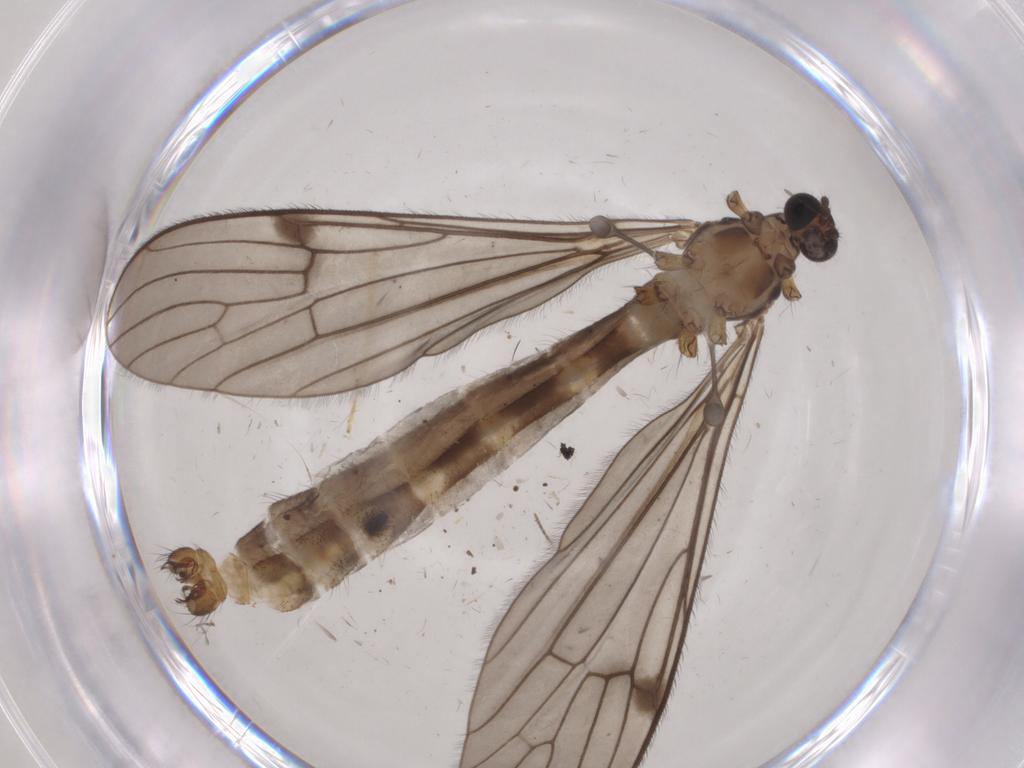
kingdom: Animalia
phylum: Arthropoda
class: Insecta
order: Diptera
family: Limoniidae
